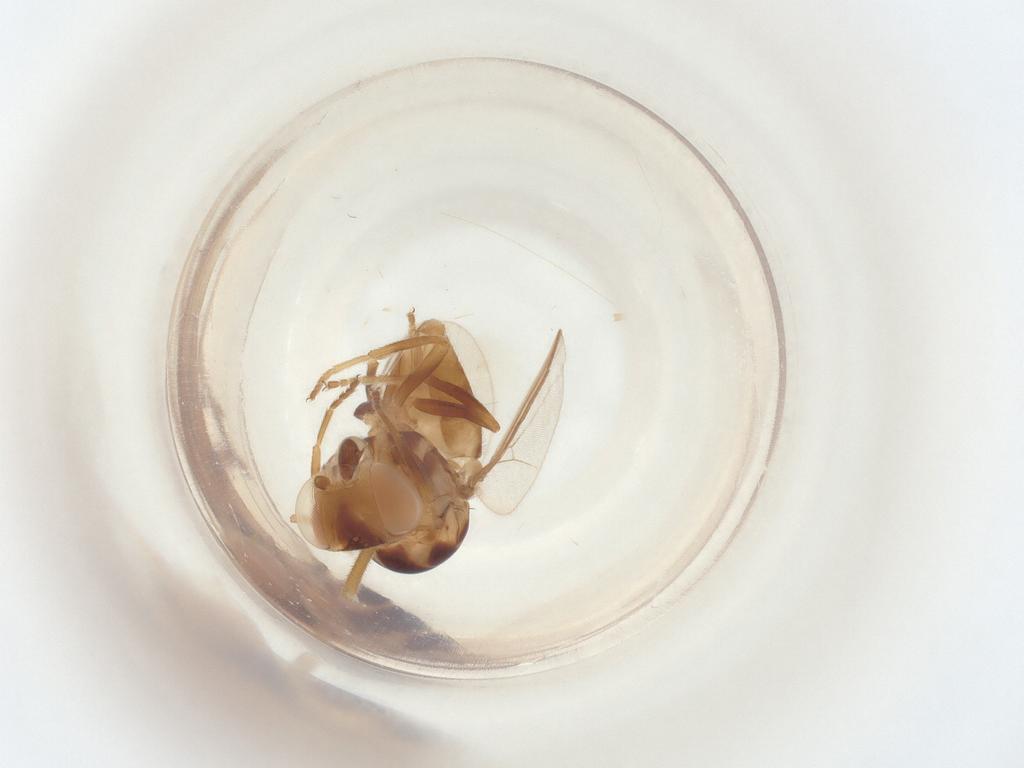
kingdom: Animalia
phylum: Arthropoda
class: Insecta
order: Diptera
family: Chloropidae
